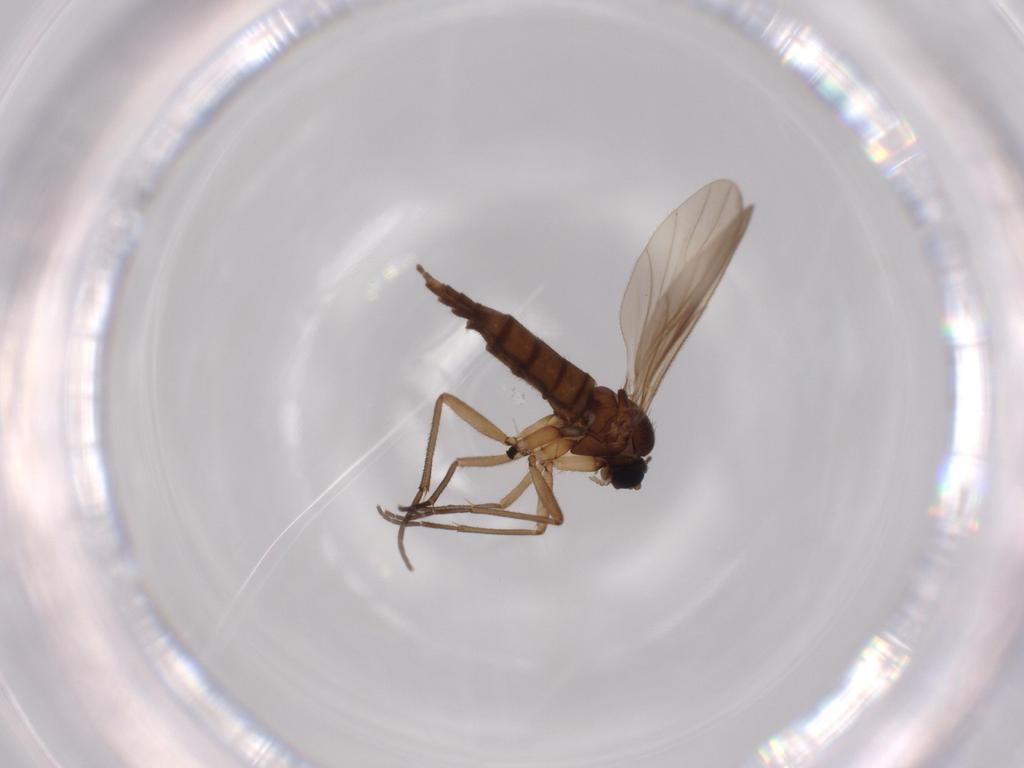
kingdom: Animalia
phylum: Arthropoda
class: Insecta
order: Diptera
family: Sciaridae
